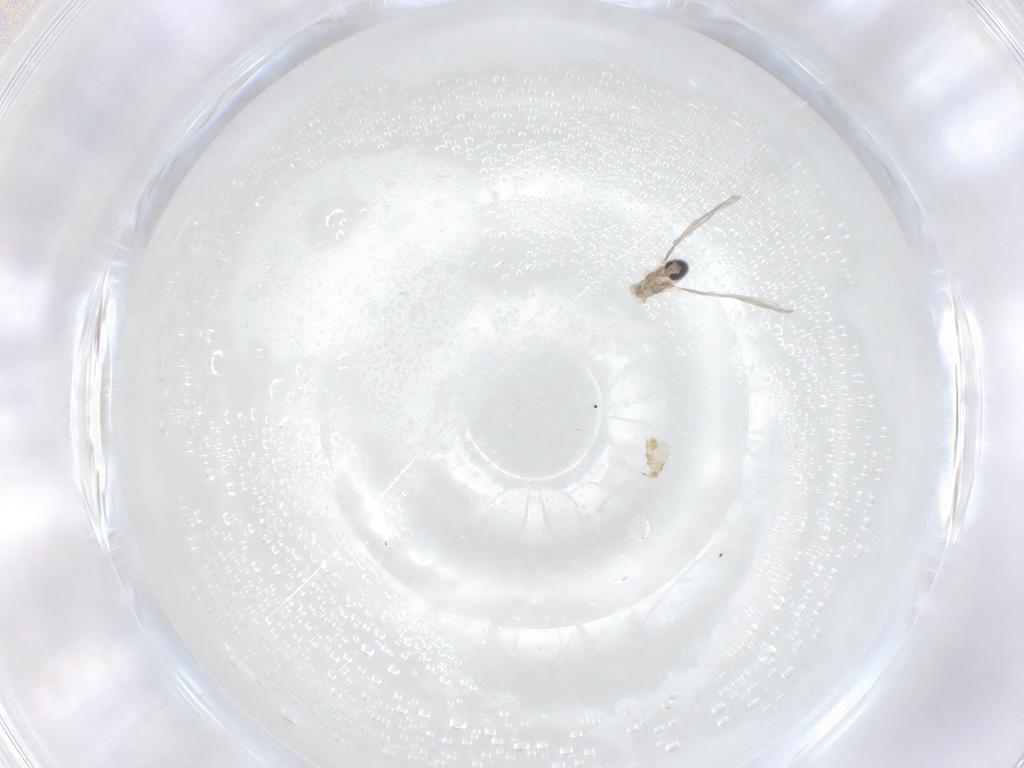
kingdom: Animalia
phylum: Arthropoda
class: Insecta
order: Diptera
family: Cecidomyiidae
